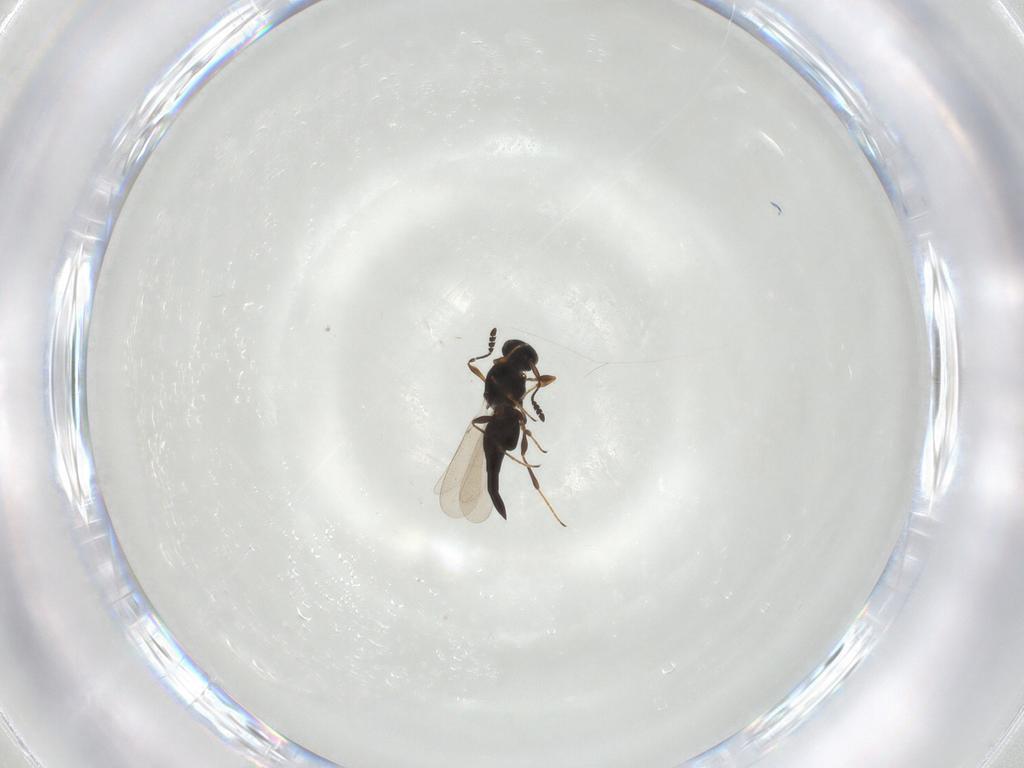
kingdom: Animalia
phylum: Arthropoda
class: Insecta
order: Hymenoptera
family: Platygastridae
